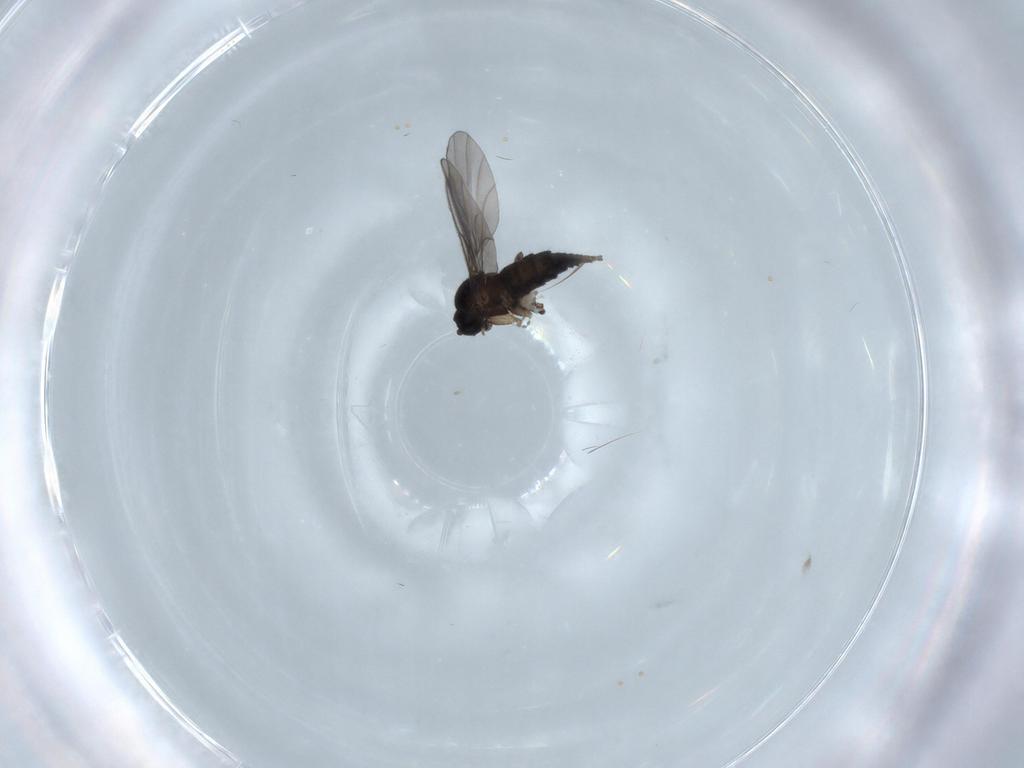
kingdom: Animalia
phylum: Arthropoda
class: Insecta
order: Diptera
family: Sciaridae
